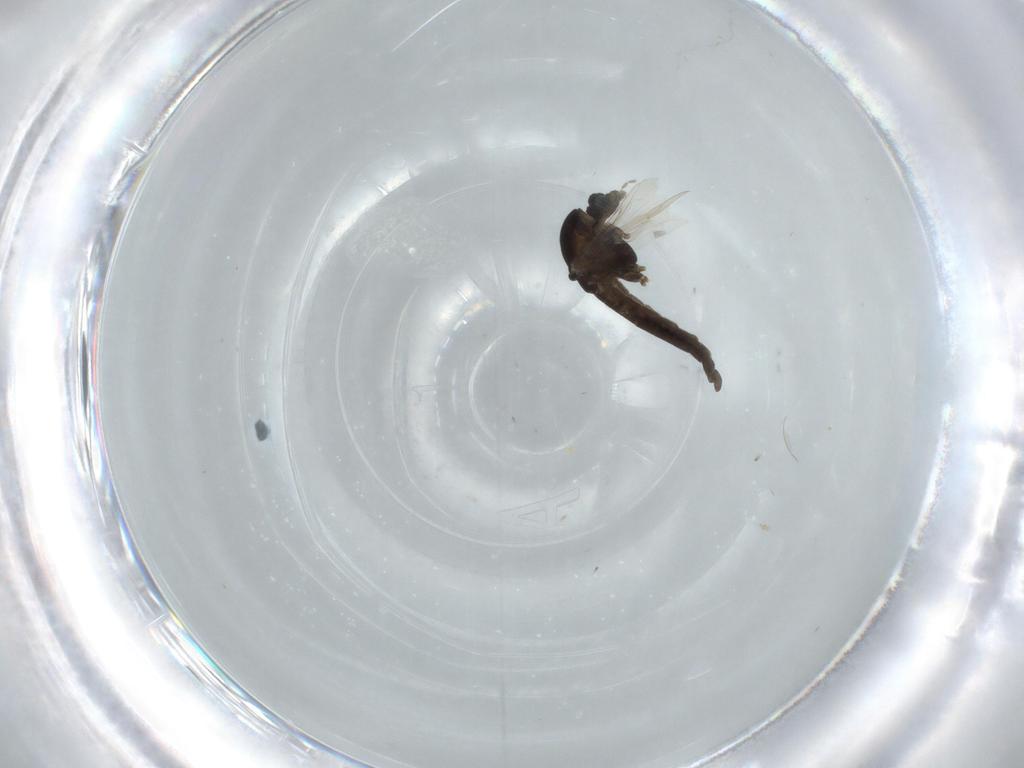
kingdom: Animalia
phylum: Arthropoda
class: Insecta
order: Diptera
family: Chironomidae
